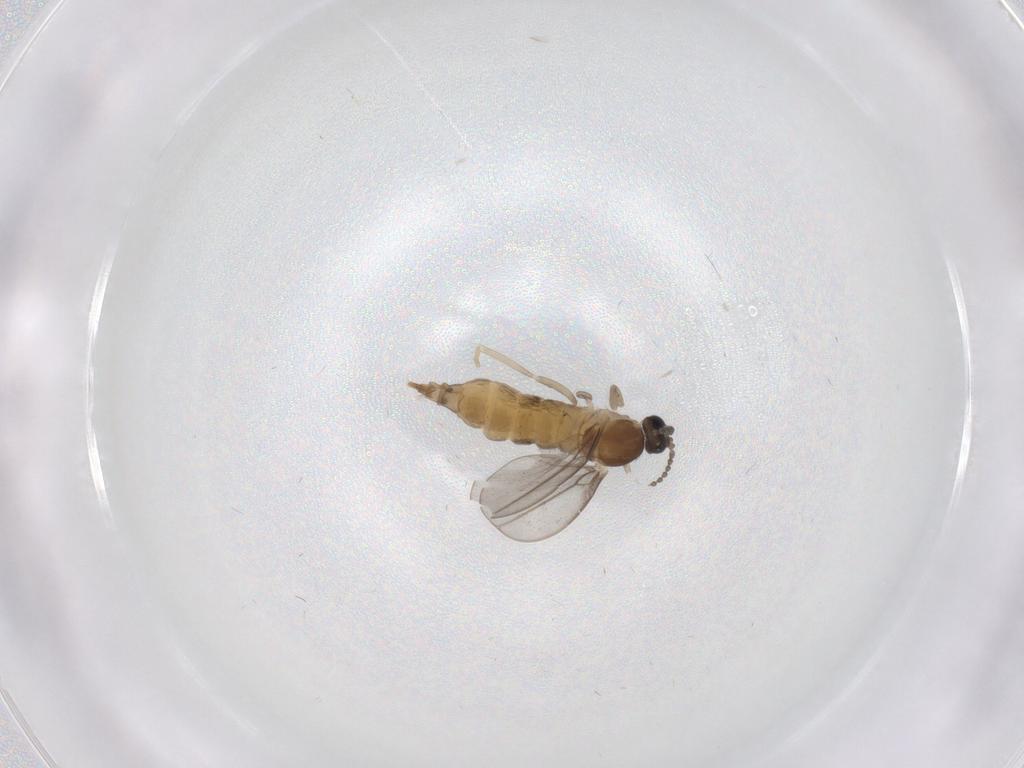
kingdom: Animalia
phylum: Arthropoda
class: Insecta
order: Diptera
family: Cecidomyiidae
